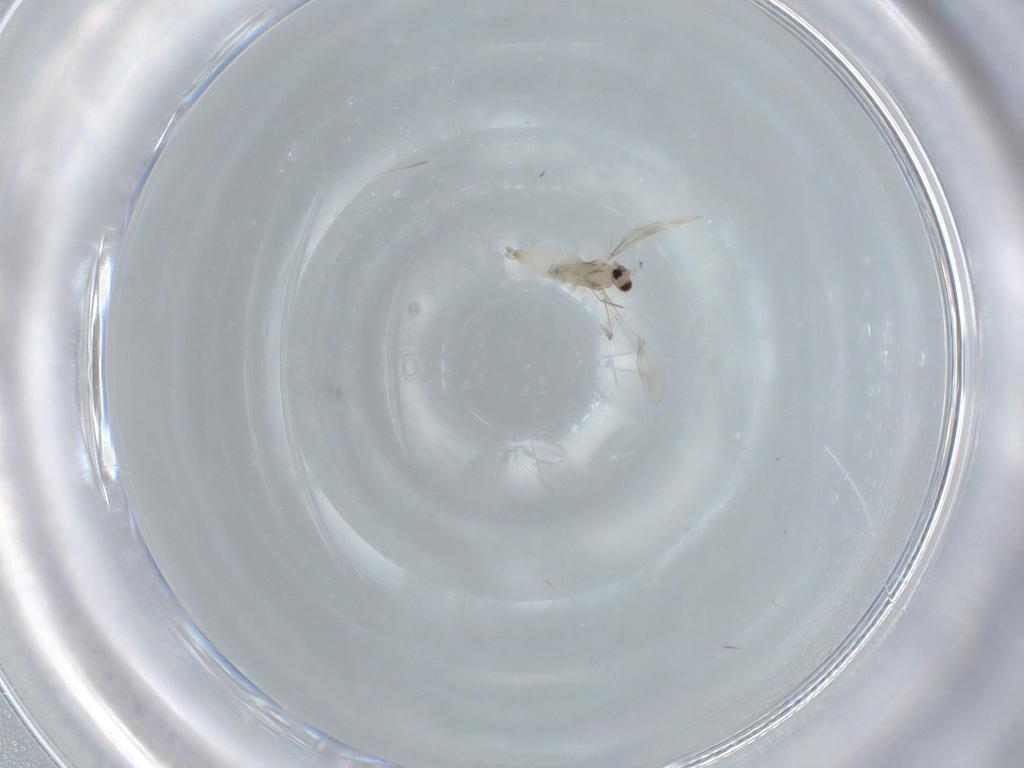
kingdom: Animalia
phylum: Arthropoda
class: Insecta
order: Diptera
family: Cecidomyiidae
